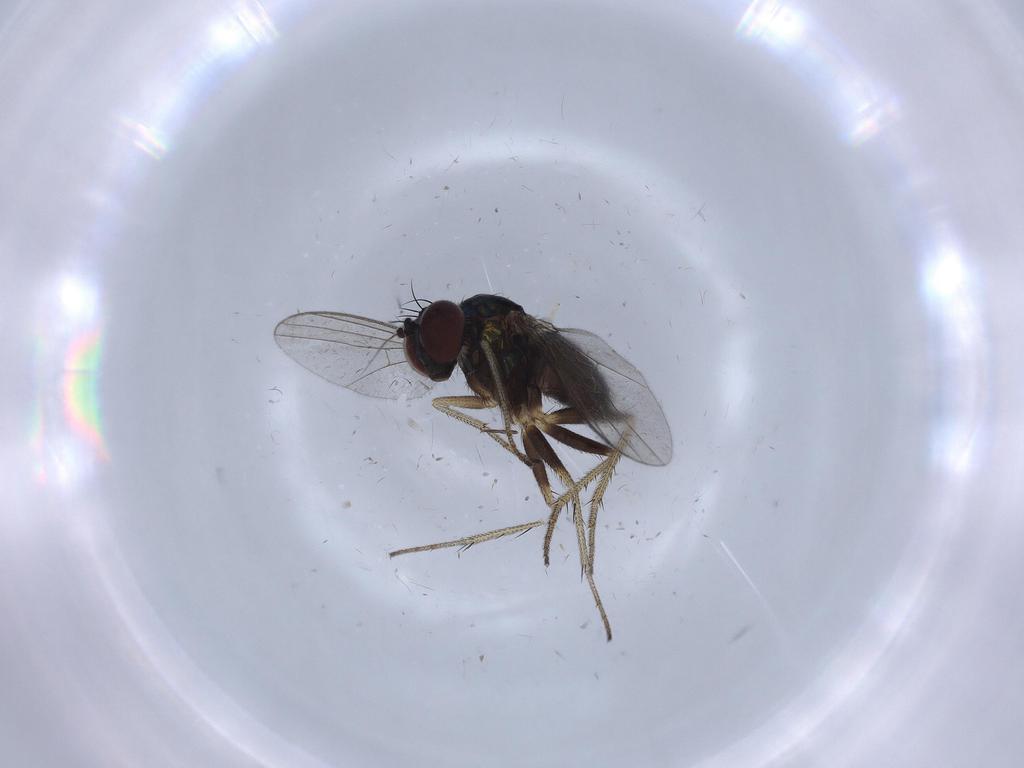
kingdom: Animalia
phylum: Arthropoda
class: Insecta
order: Diptera
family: Dolichopodidae
